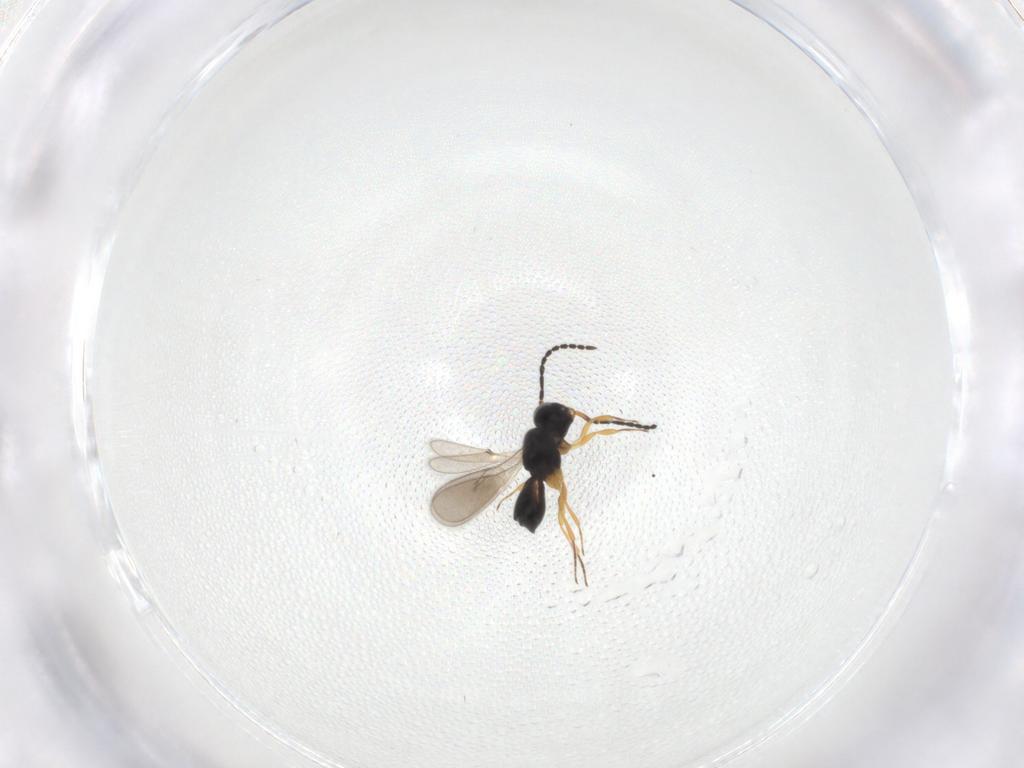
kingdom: Animalia
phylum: Arthropoda
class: Insecta
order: Hymenoptera
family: Scelionidae
